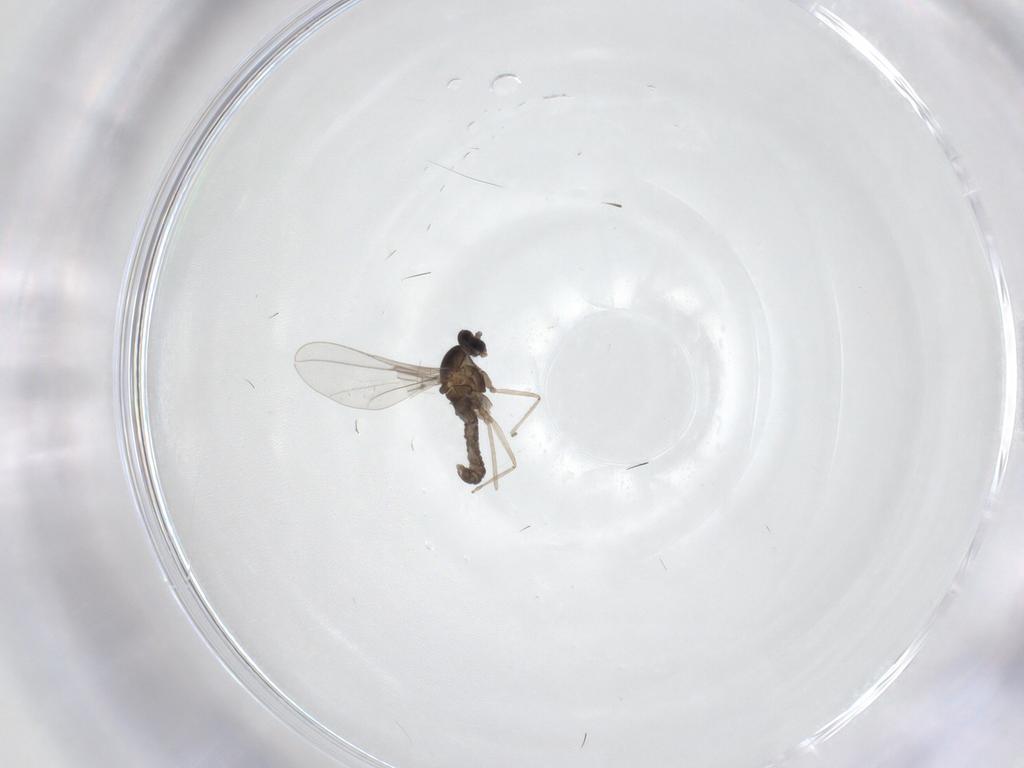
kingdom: Animalia
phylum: Arthropoda
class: Insecta
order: Diptera
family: Cecidomyiidae
